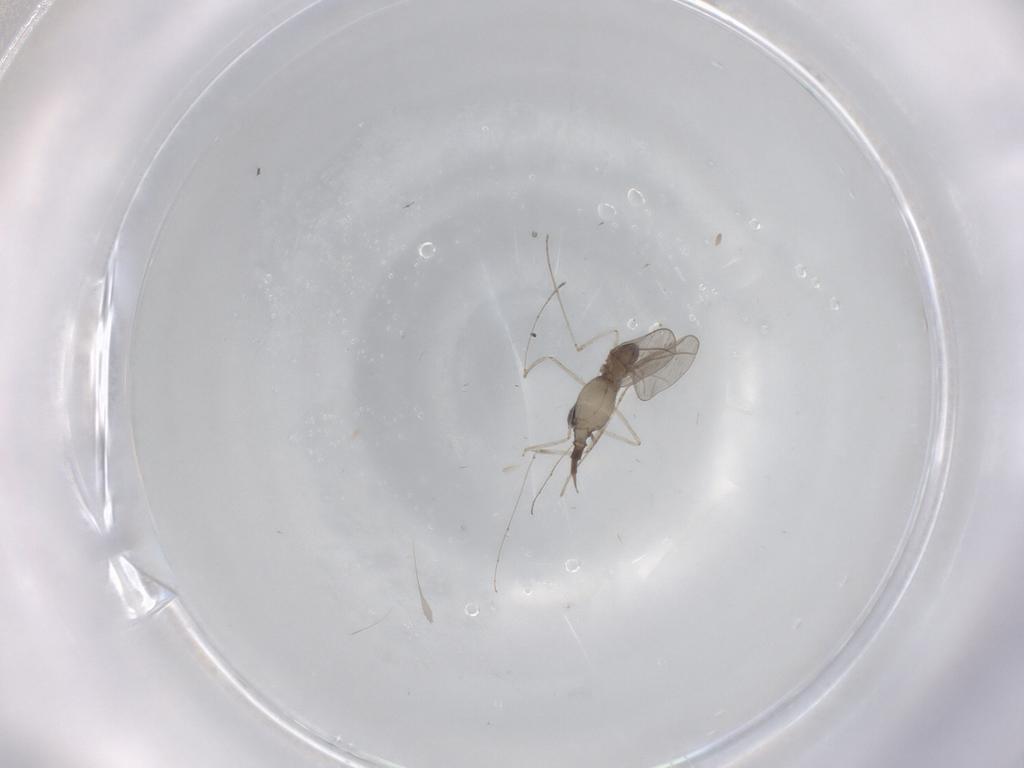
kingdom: Animalia
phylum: Arthropoda
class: Insecta
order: Diptera
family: Cecidomyiidae
